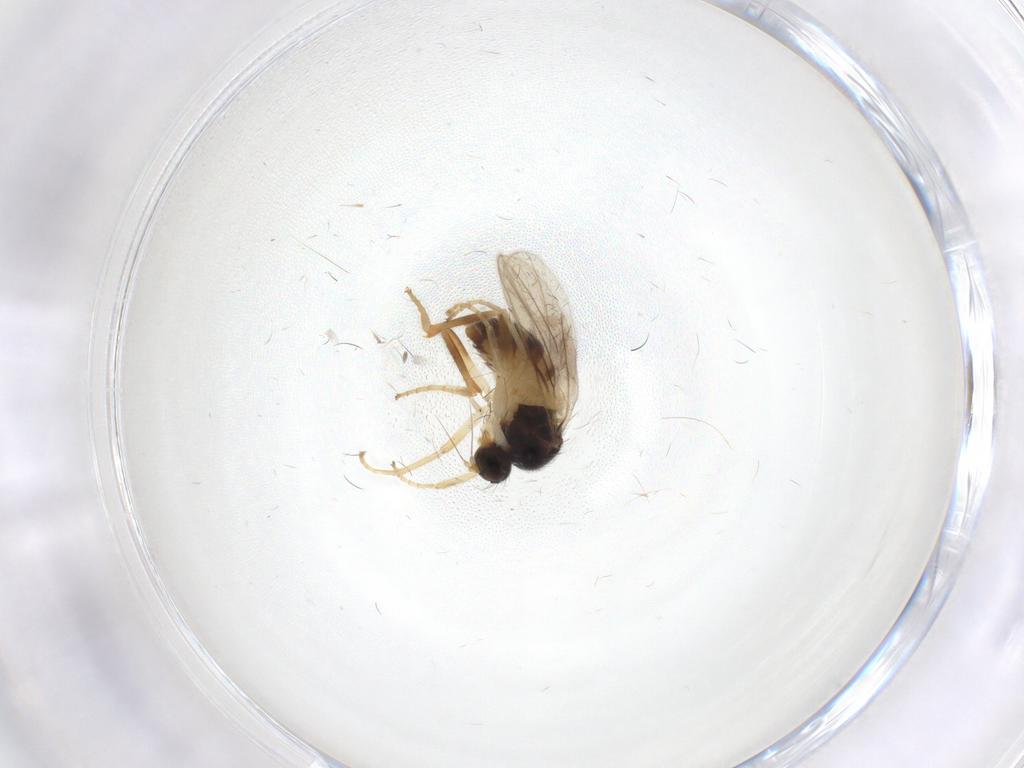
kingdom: Animalia
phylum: Arthropoda
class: Insecta
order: Diptera
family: Hybotidae
